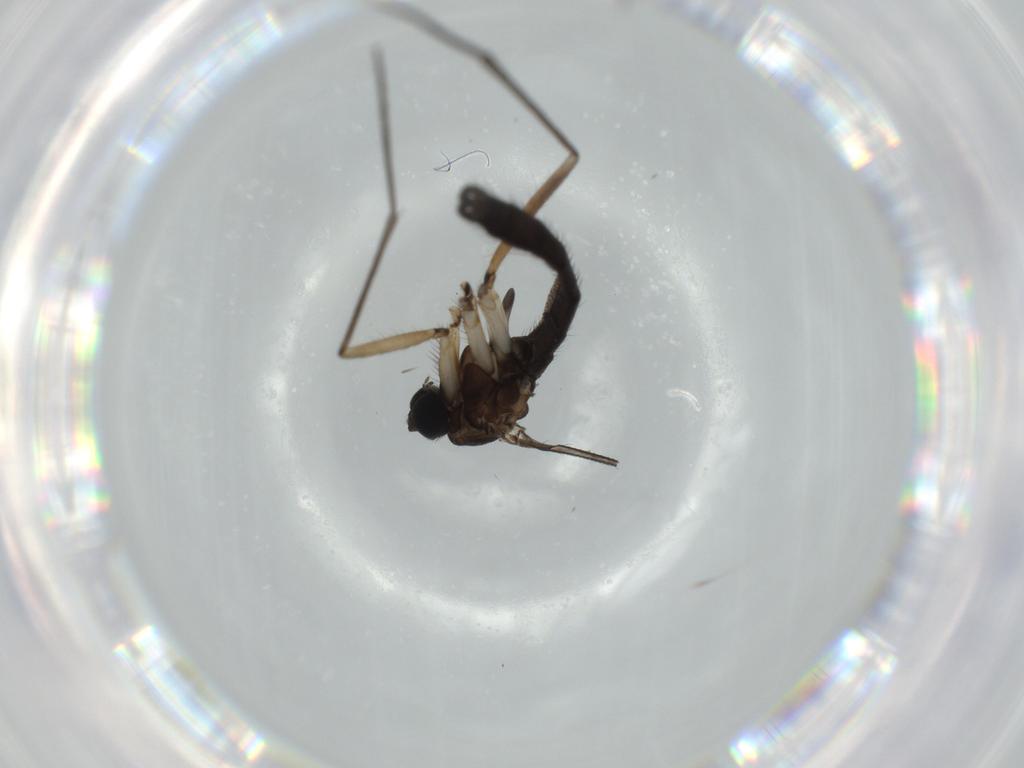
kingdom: Animalia
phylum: Arthropoda
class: Insecta
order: Diptera
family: Sciaridae
